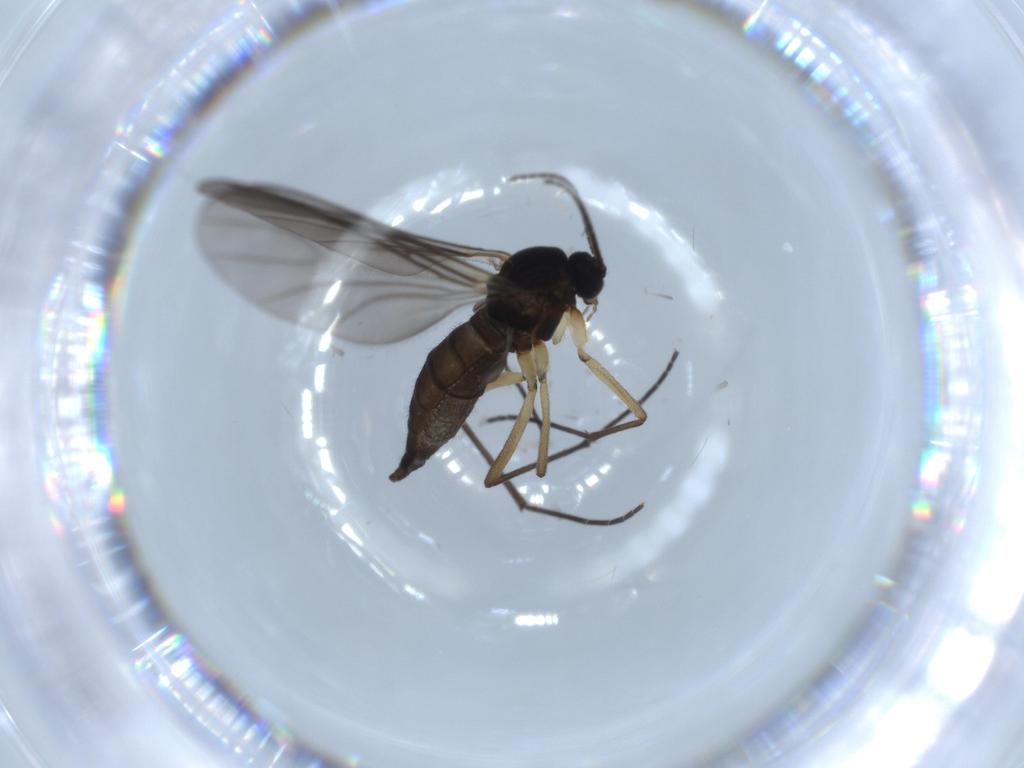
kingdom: Animalia
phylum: Arthropoda
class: Insecta
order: Diptera
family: Sciaridae
